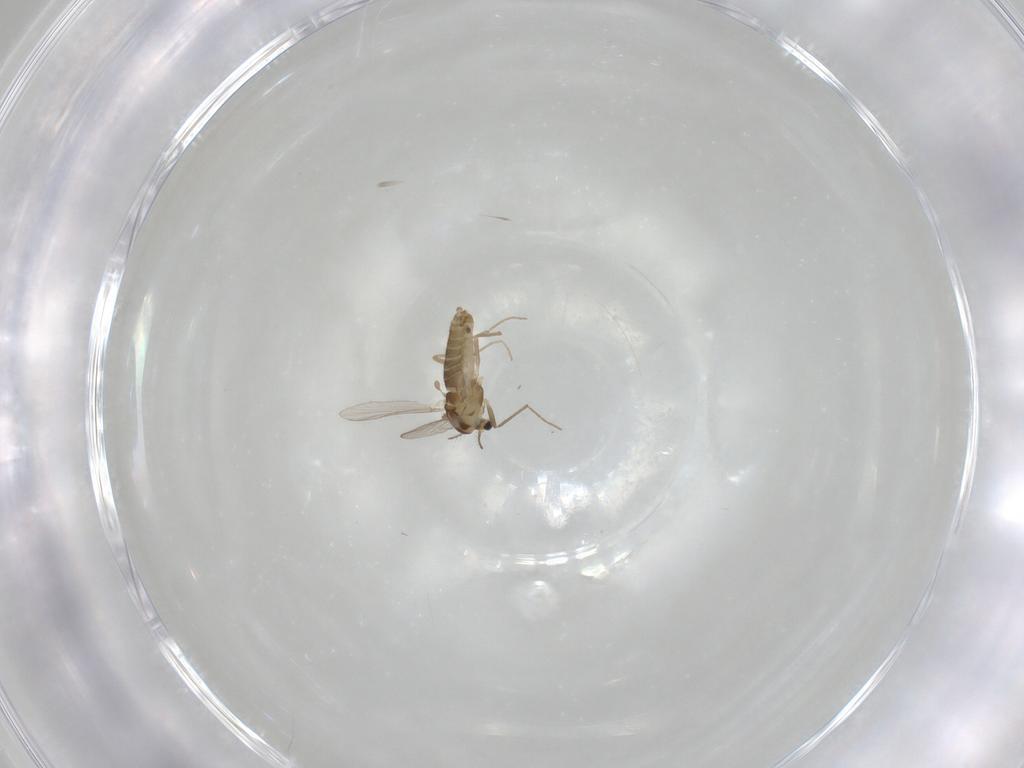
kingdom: Animalia
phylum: Arthropoda
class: Insecta
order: Diptera
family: Chironomidae
